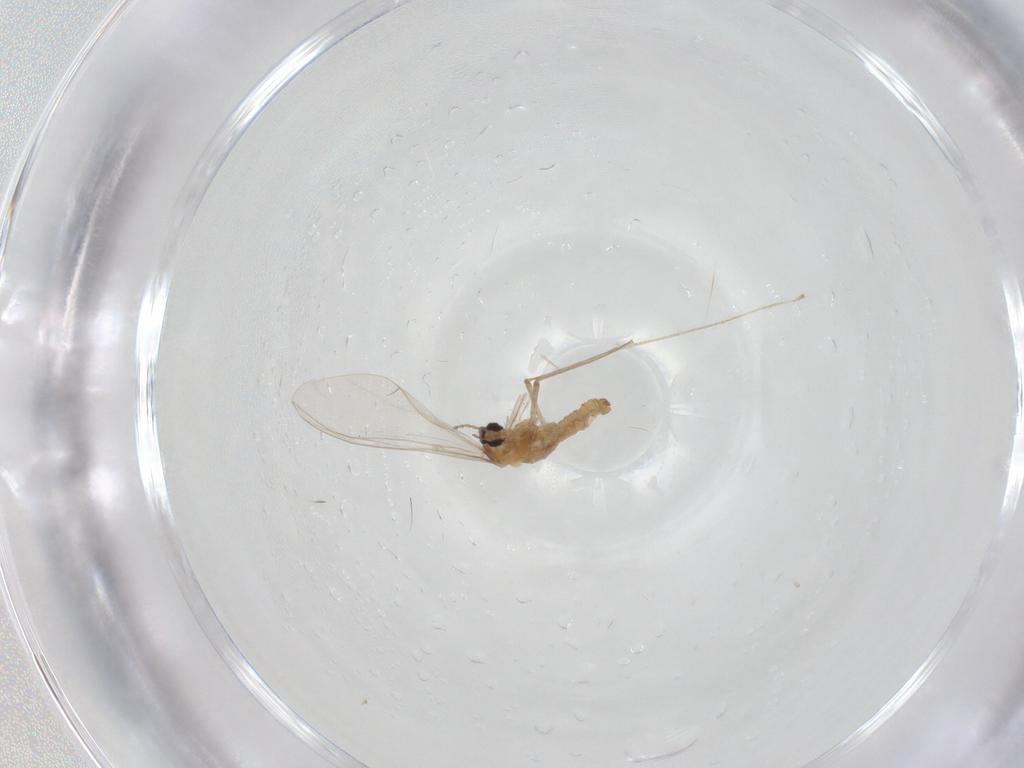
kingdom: Animalia
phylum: Arthropoda
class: Insecta
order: Diptera
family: Cecidomyiidae
